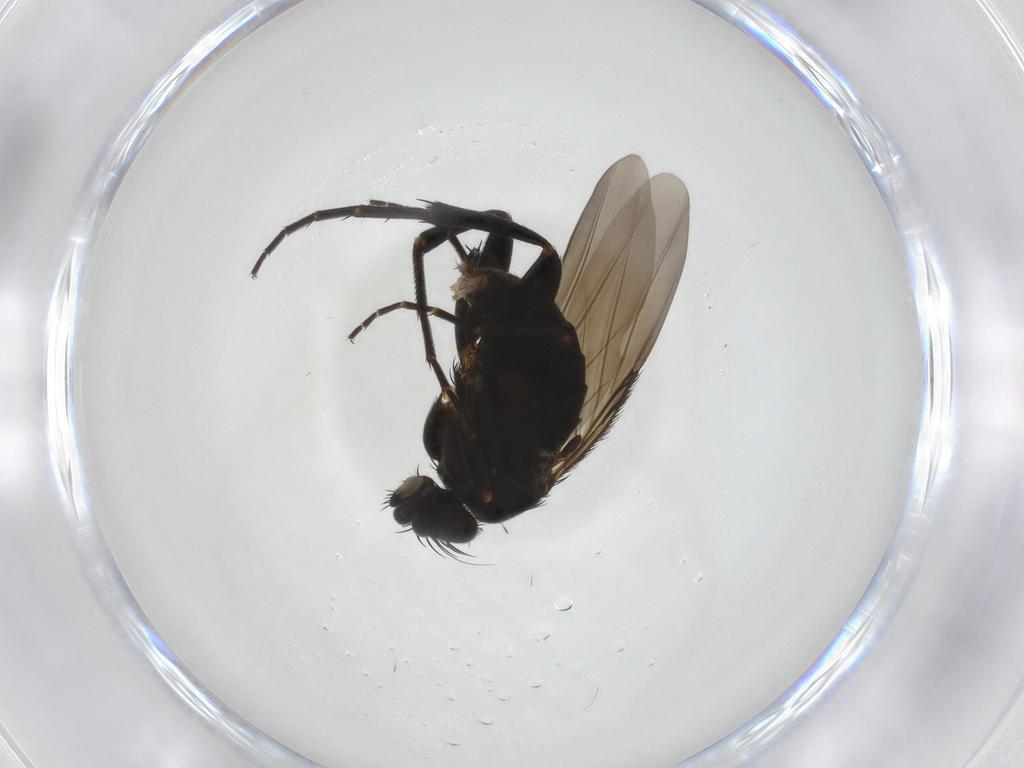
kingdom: Animalia
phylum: Arthropoda
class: Insecta
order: Diptera
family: Phoridae
